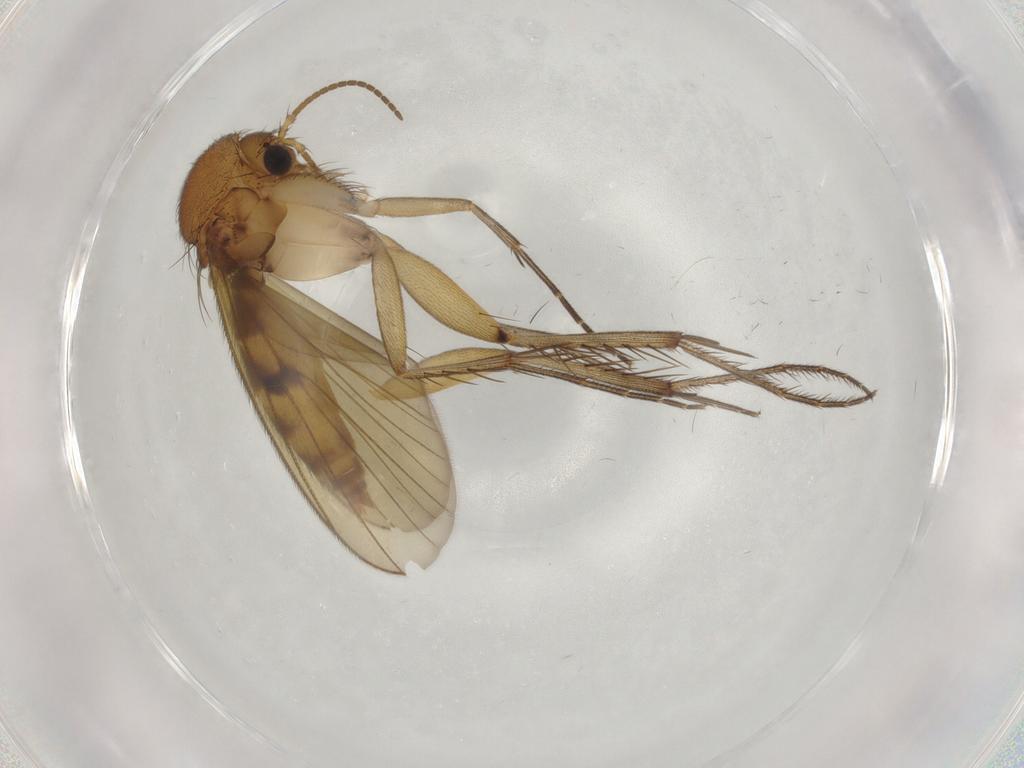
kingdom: Animalia
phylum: Arthropoda
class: Insecta
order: Diptera
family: Mycetophilidae
